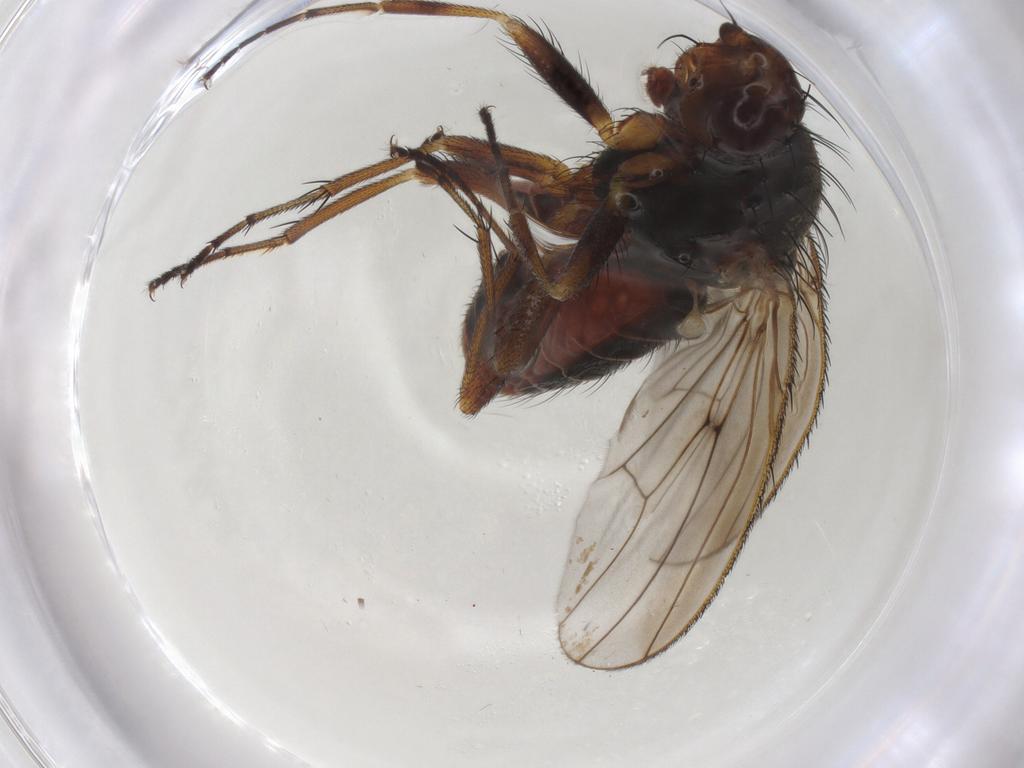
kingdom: Animalia
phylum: Arthropoda
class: Insecta
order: Diptera
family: Heleomyzidae
